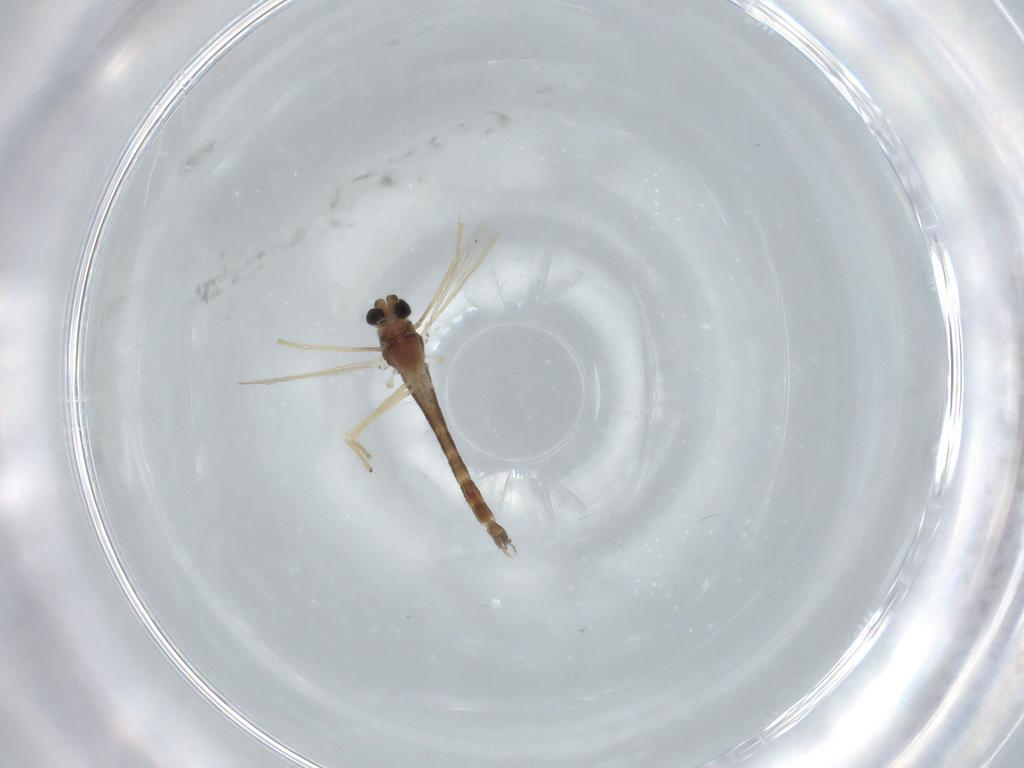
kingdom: Animalia
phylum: Arthropoda
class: Insecta
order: Diptera
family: Chironomidae
